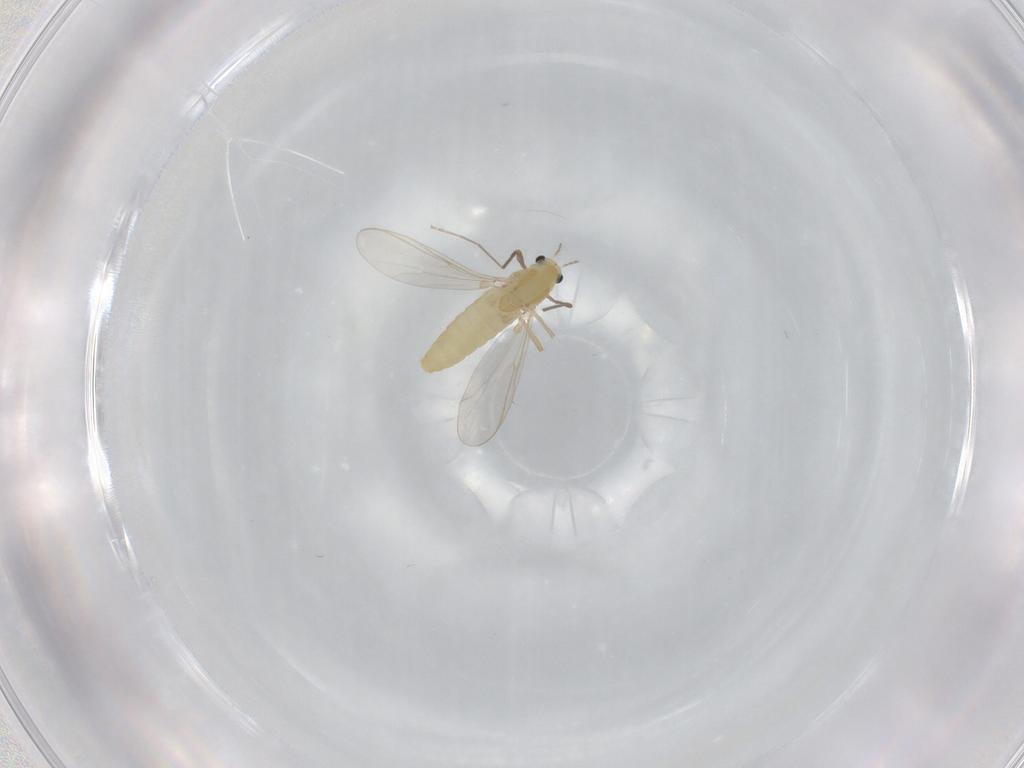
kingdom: Animalia
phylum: Arthropoda
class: Insecta
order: Diptera
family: Chironomidae
